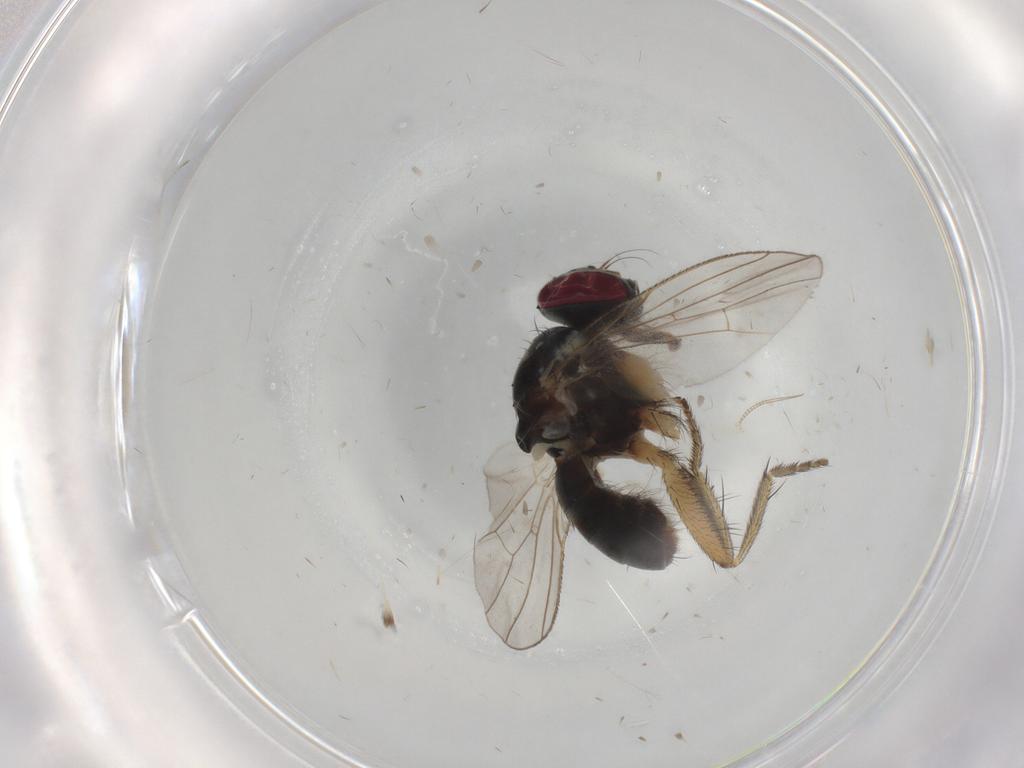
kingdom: Animalia
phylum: Arthropoda
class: Insecta
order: Diptera
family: Muscidae
